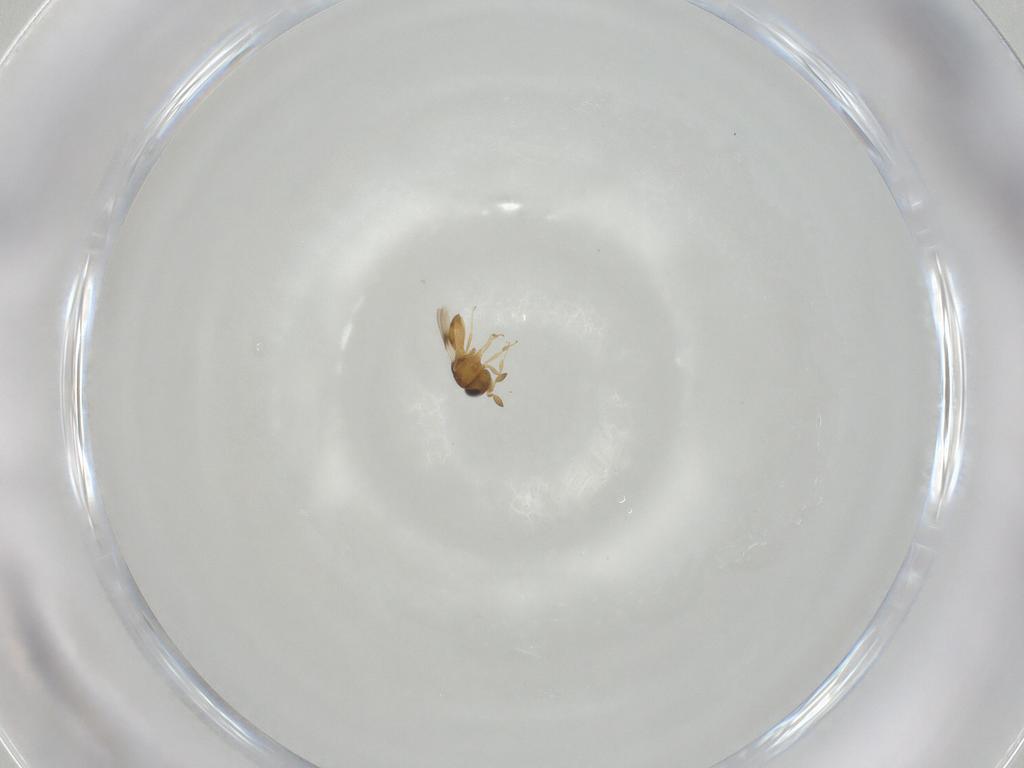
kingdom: Animalia
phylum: Arthropoda
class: Insecta
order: Hymenoptera
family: Scelionidae
